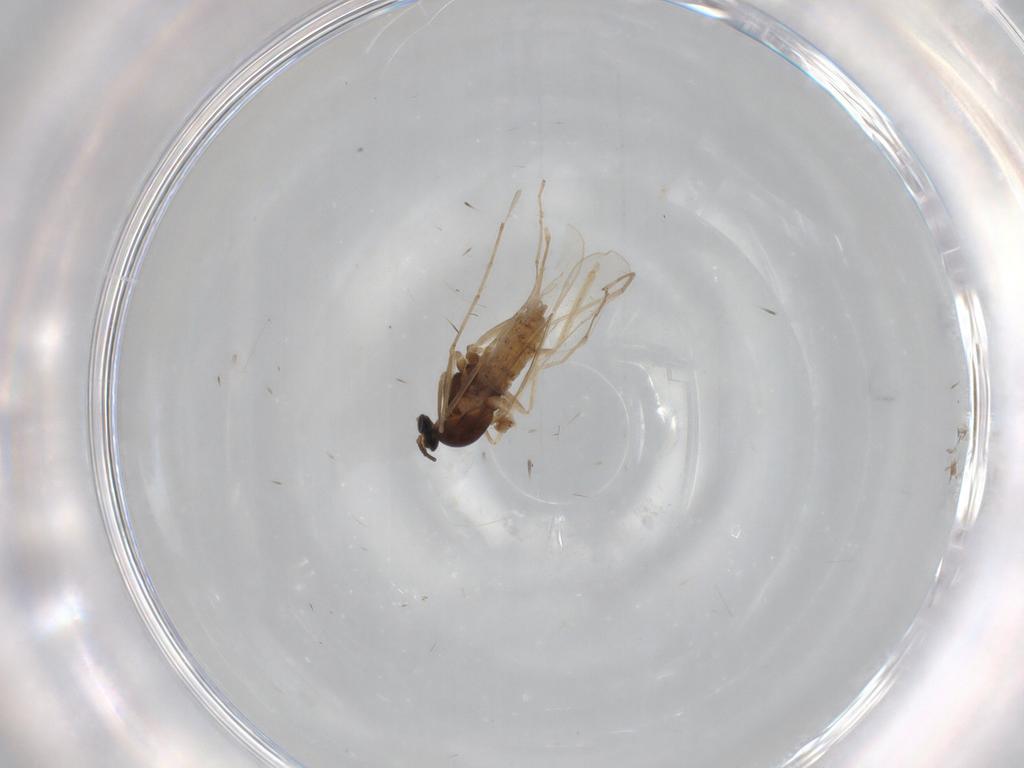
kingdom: Animalia
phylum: Arthropoda
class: Insecta
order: Diptera
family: Cecidomyiidae
